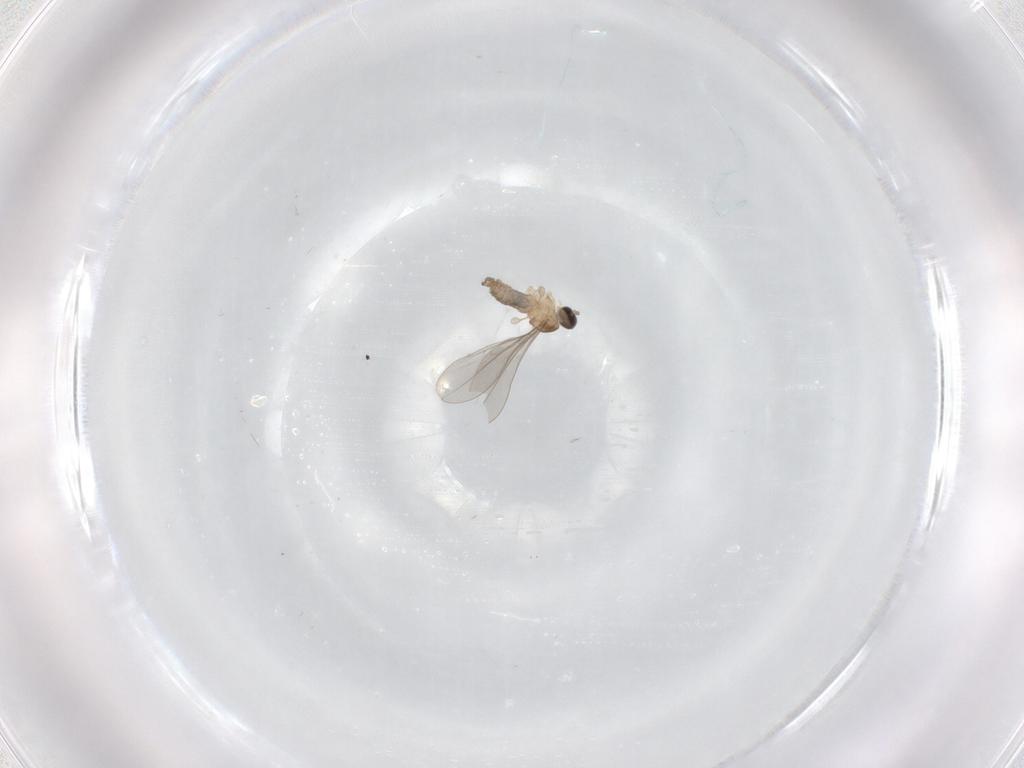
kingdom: Animalia
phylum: Arthropoda
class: Insecta
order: Diptera
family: Cecidomyiidae
